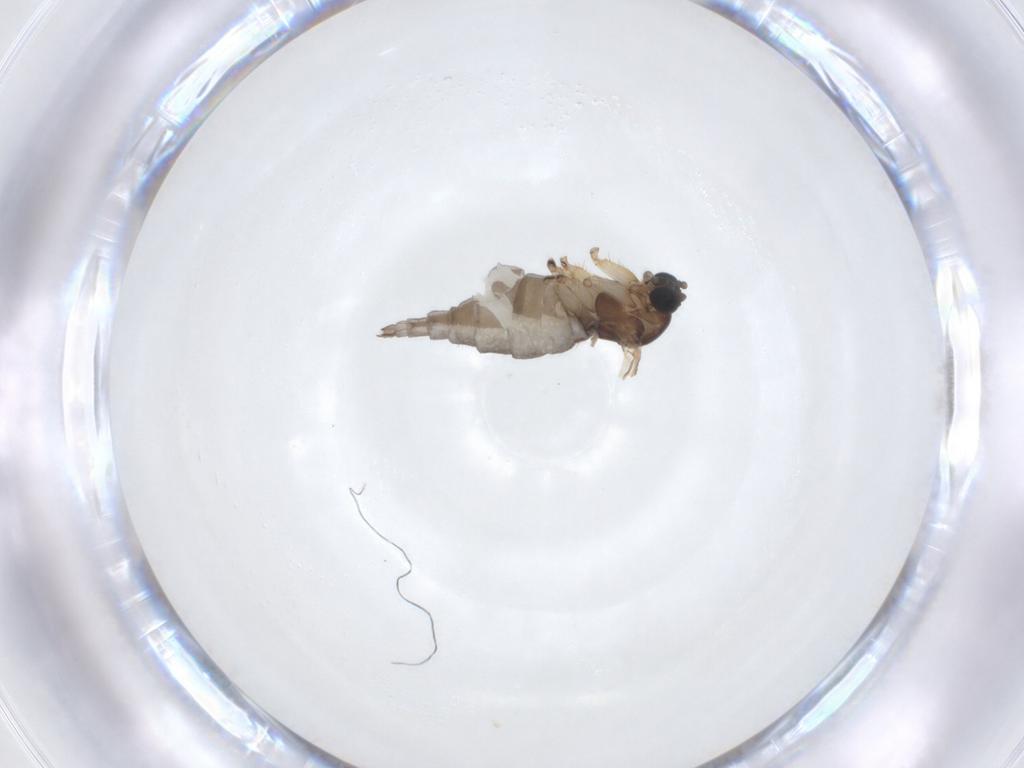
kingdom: Animalia
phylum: Arthropoda
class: Insecta
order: Diptera
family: Sciaridae
